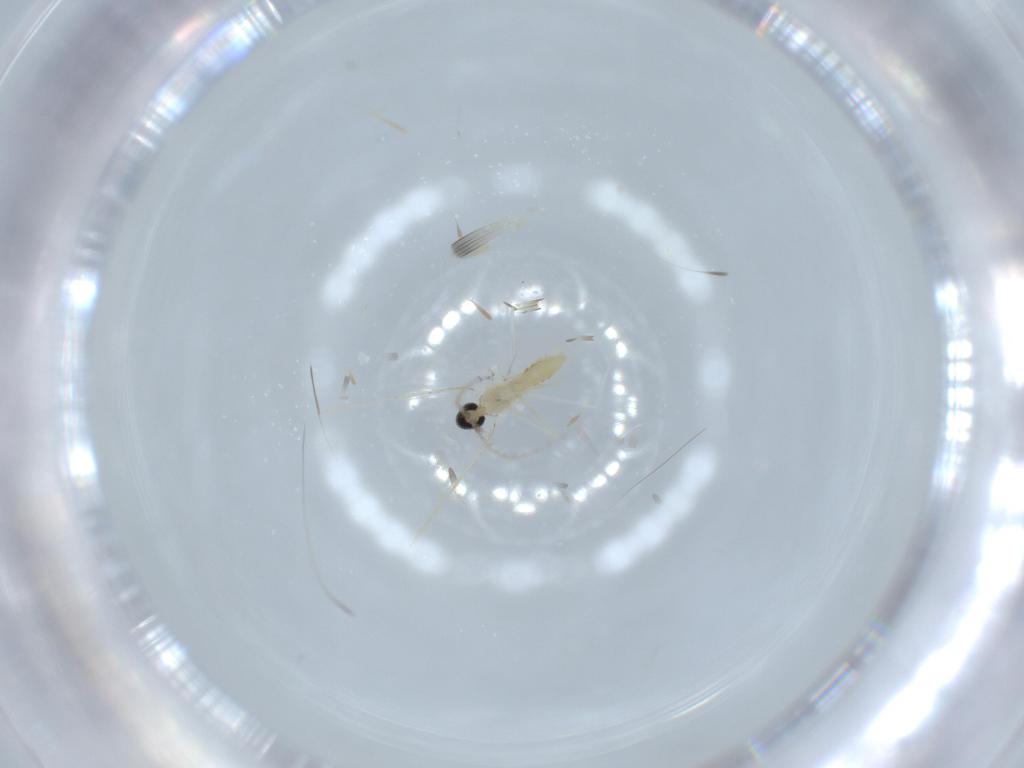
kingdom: Animalia
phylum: Arthropoda
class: Insecta
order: Diptera
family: Cecidomyiidae
